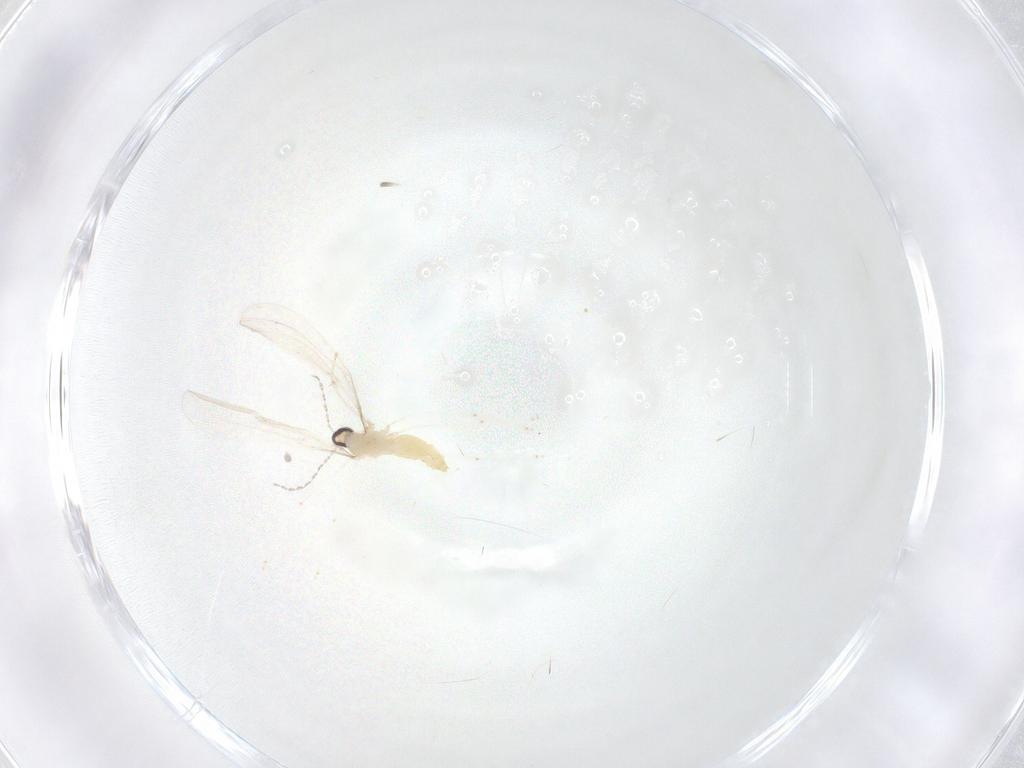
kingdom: Animalia
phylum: Arthropoda
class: Insecta
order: Diptera
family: Cecidomyiidae
